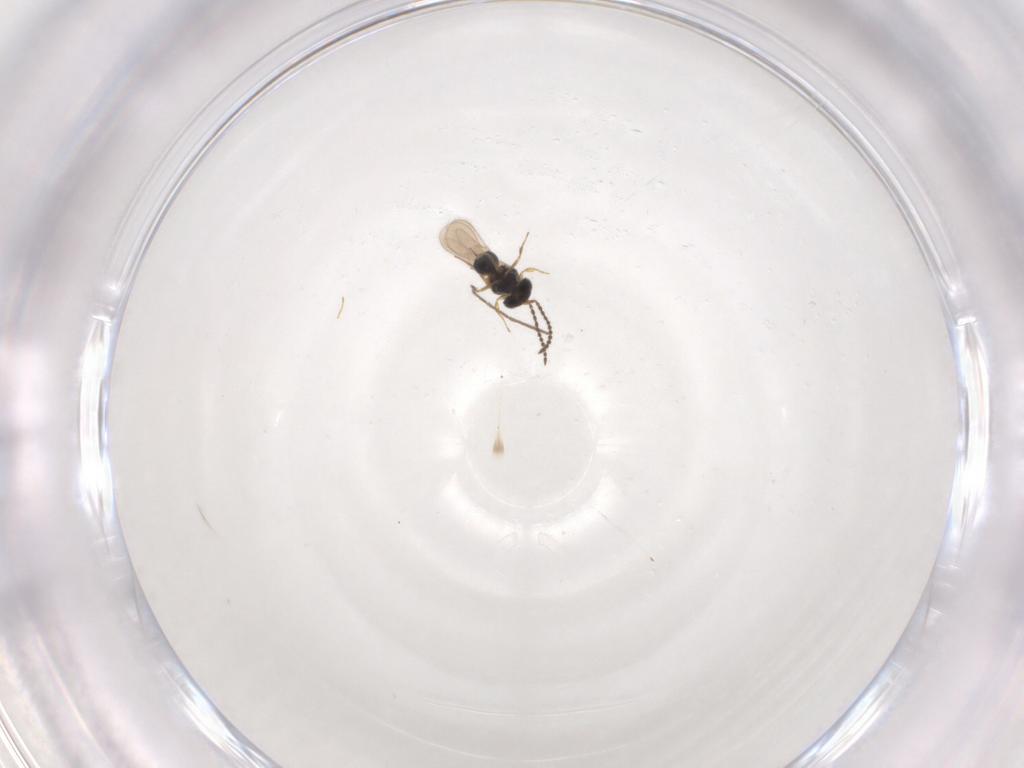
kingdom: Animalia
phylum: Arthropoda
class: Insecta
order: Hymenoptera
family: Scelionidae
